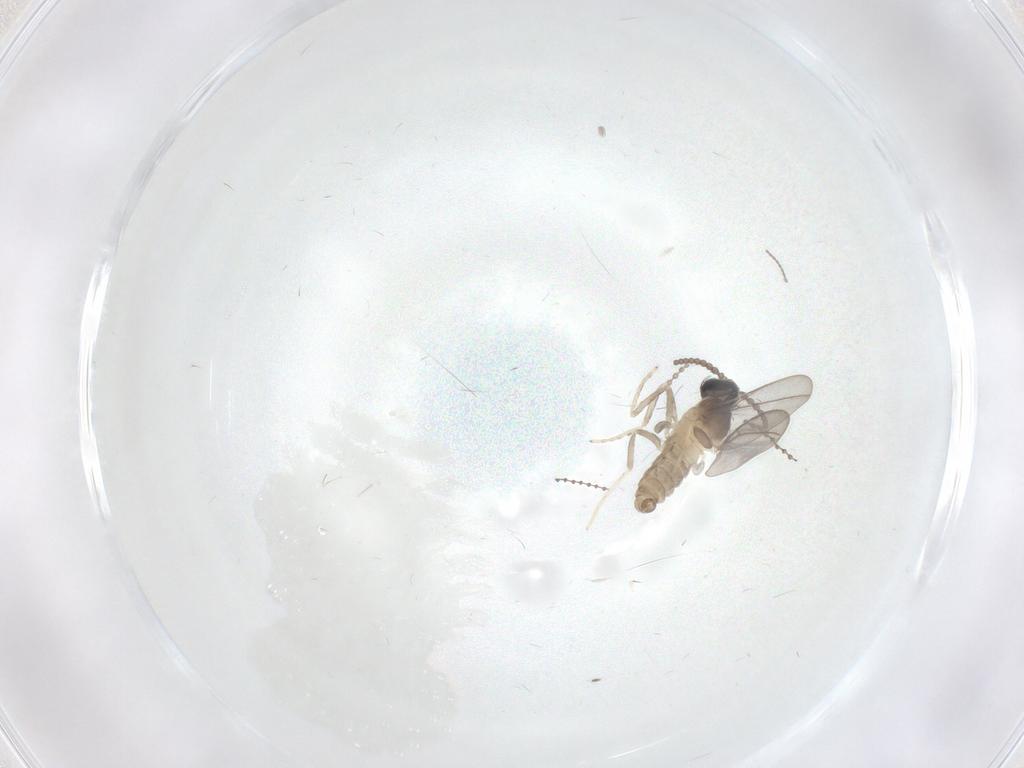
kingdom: Animalia
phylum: Arthropoda
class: Insecta
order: Diptera
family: Cecidomyiidae
